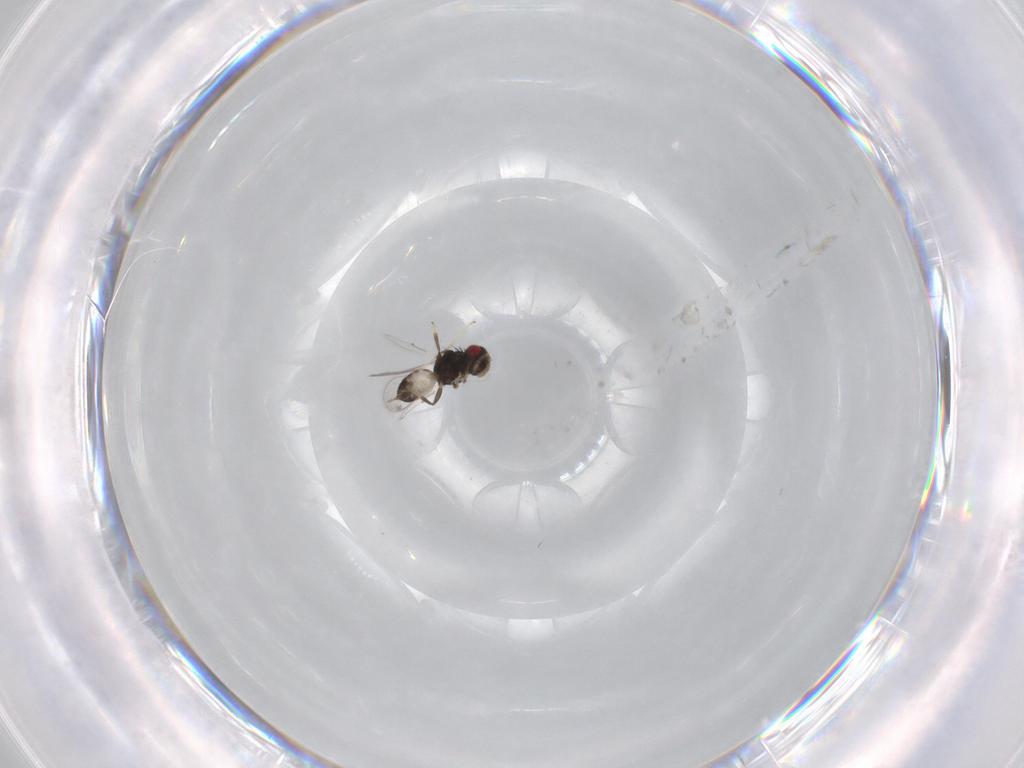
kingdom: Animalia
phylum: Arthropoda
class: Insecta
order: Hymenoptera
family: Eulophidae
